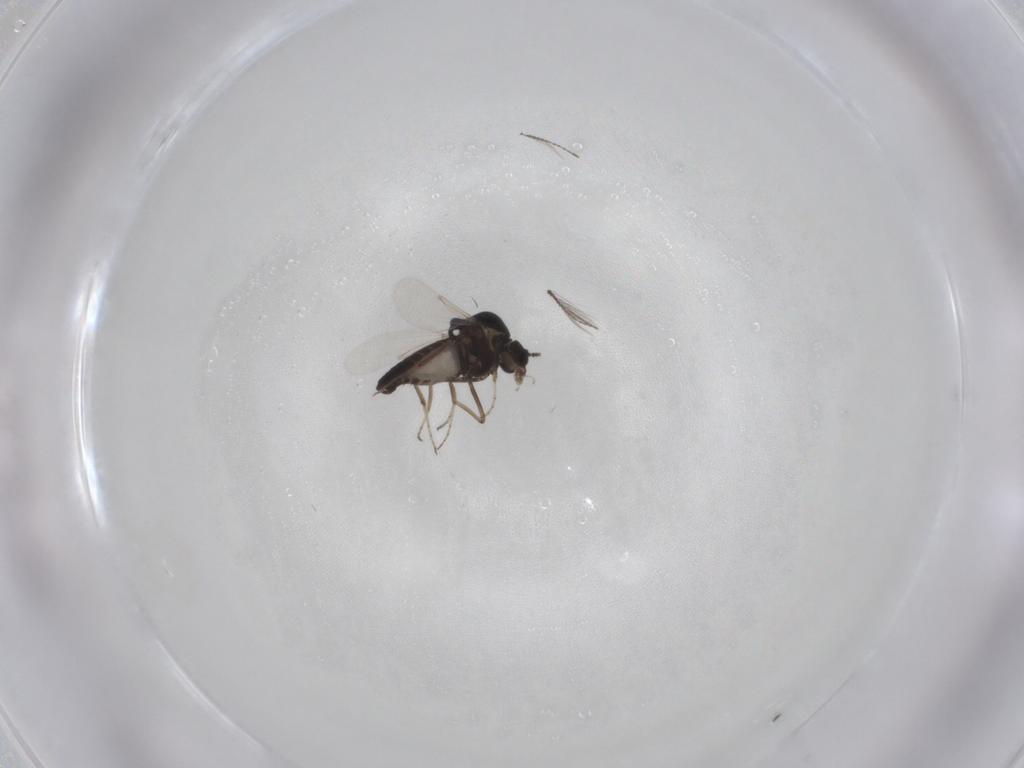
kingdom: Animalia
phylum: Arthropoda
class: Insecta
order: Diptera
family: Ceratopogonidae
